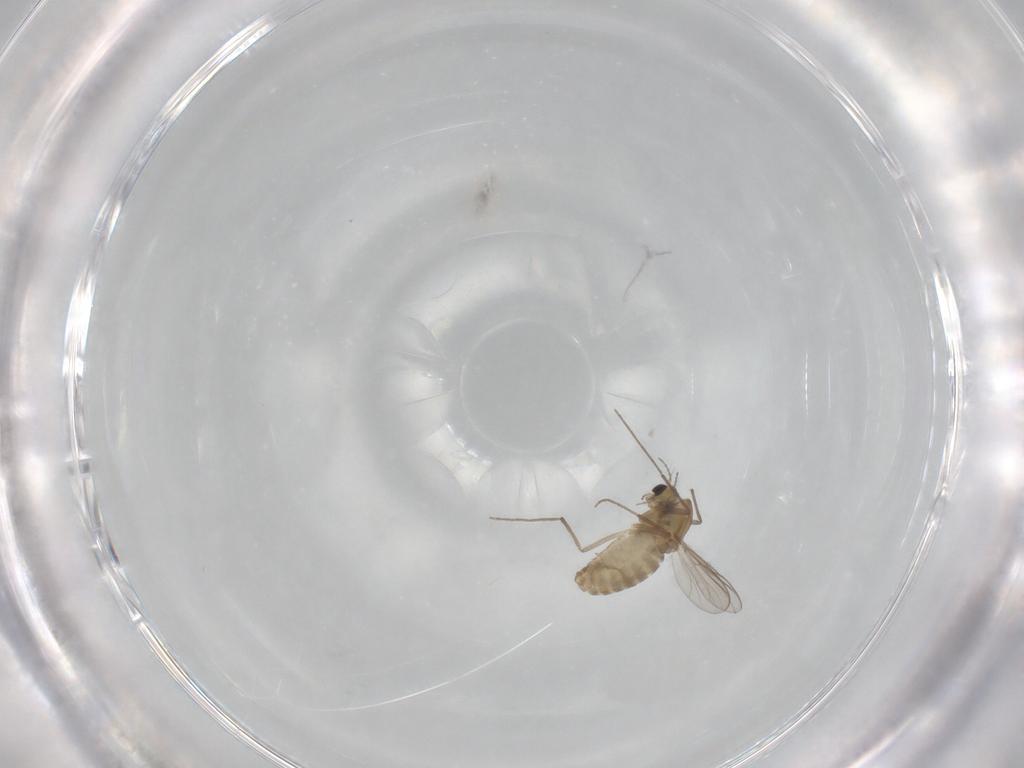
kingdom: Animalia
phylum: Arthropoda
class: Insecta
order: Diptera
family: Chironomidae
